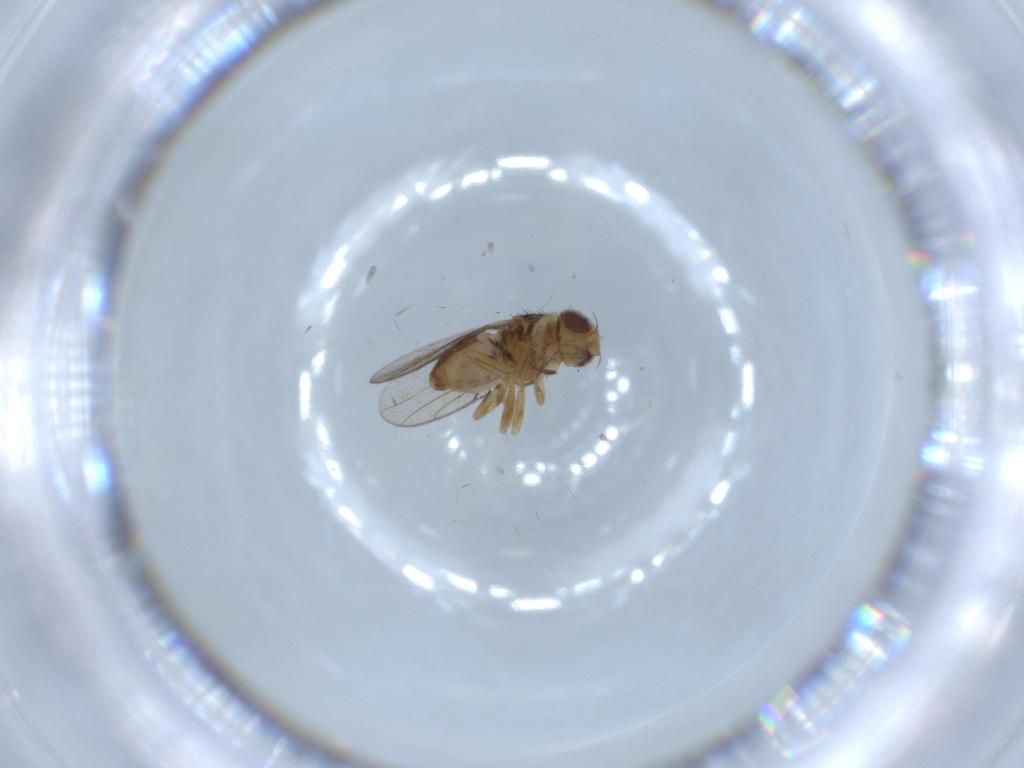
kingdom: Animalia
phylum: Arthropoda
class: Insecta
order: Diptera
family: Chloropidae
